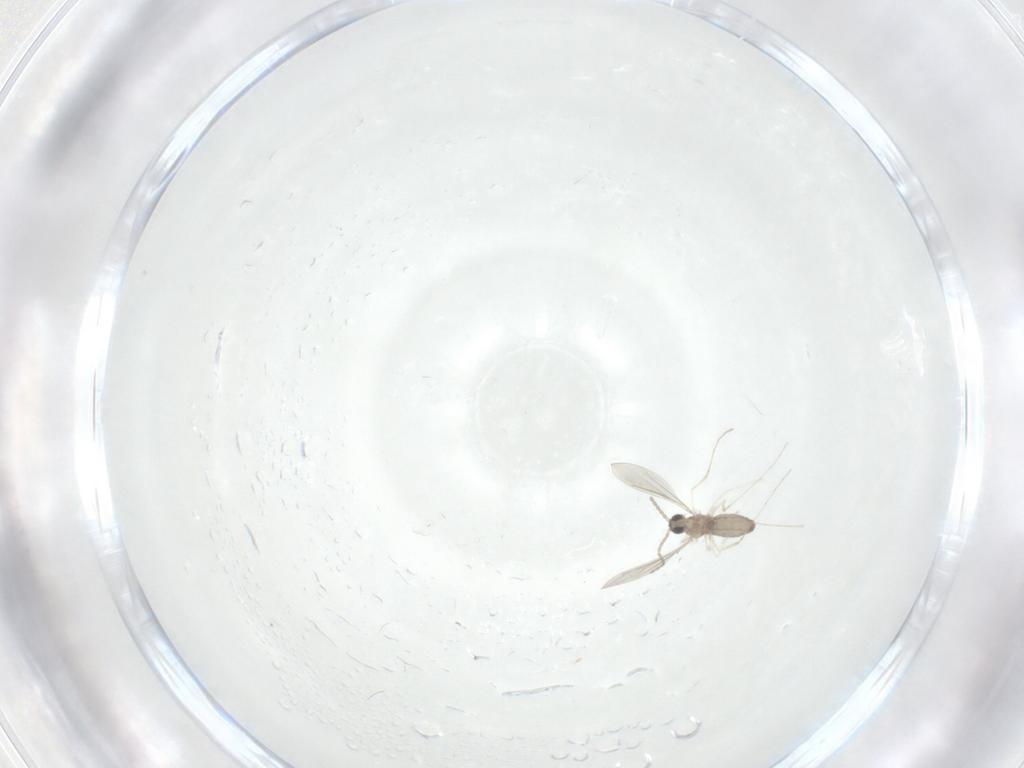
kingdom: Animalia
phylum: Arthropoda
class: Insecta
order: Diptera
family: Cecidomyiidae
